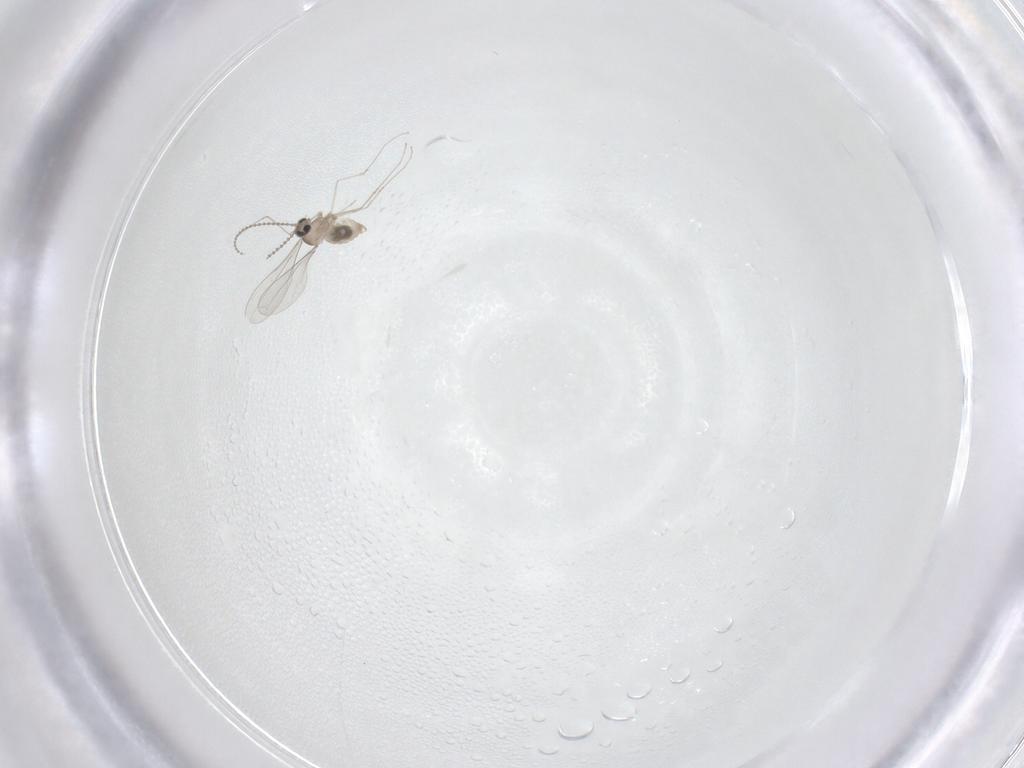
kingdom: Animalia
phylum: Arthropoda
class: Insecta
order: Diptera
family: Cecidomyiidae
